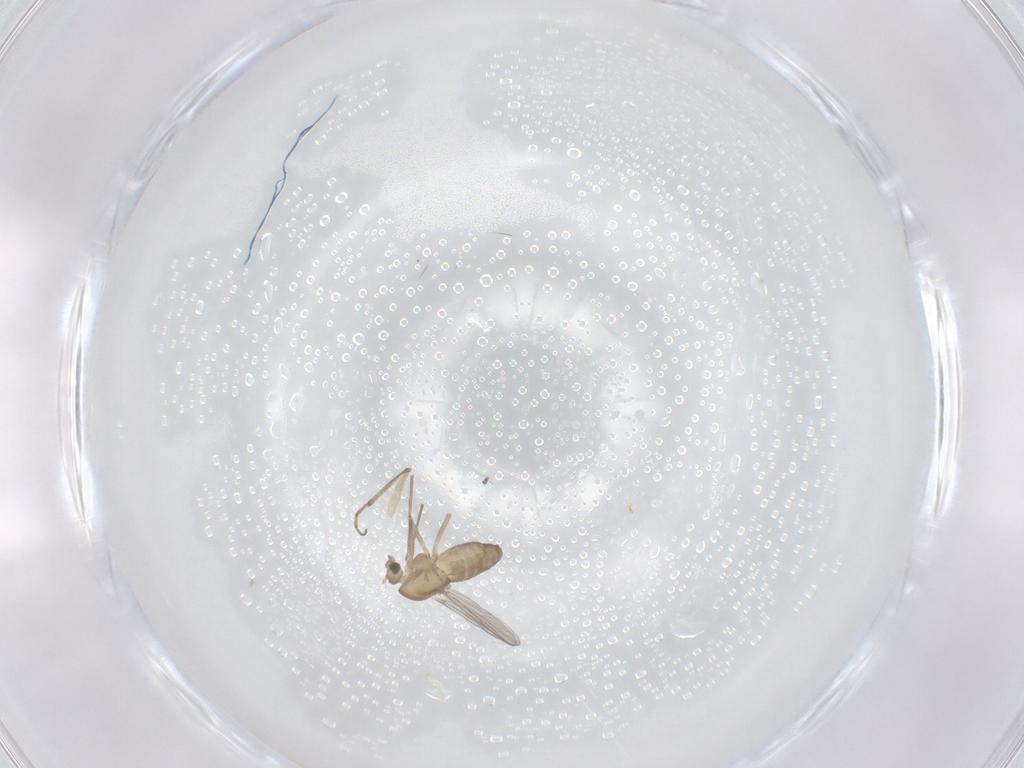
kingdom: Animalia
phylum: Arthropoda
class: Insecta
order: Diptera
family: Chironomidae
